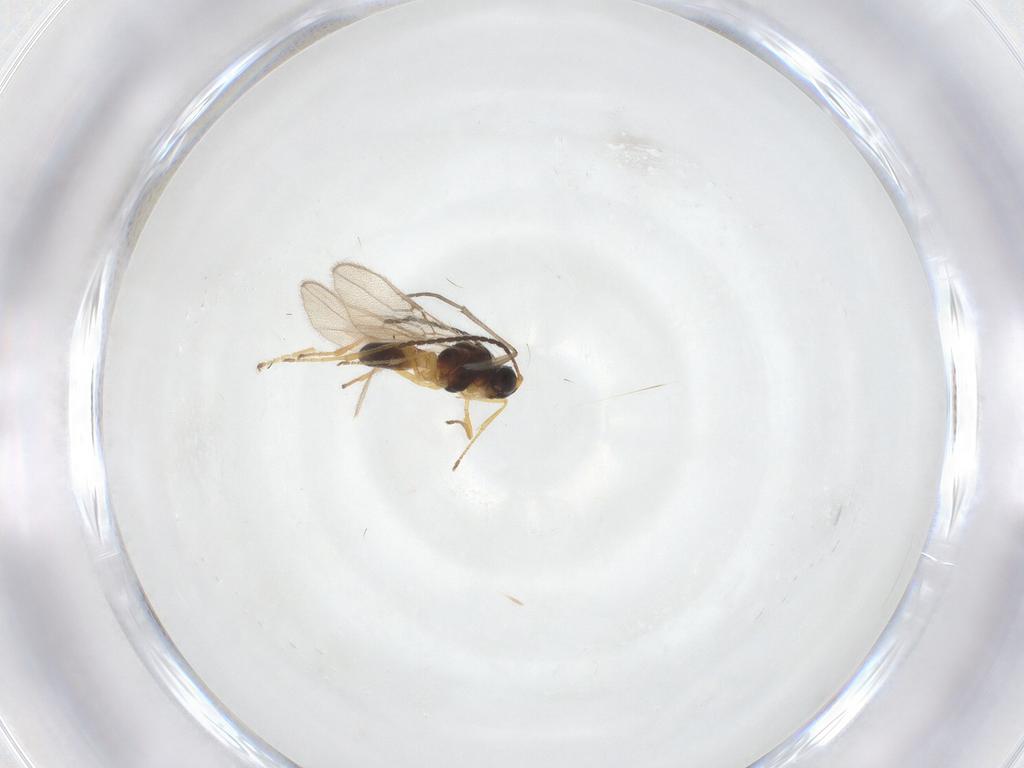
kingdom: Animalia
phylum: Arthropoda
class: Insecta
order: Hymenoptera
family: Braconidae
